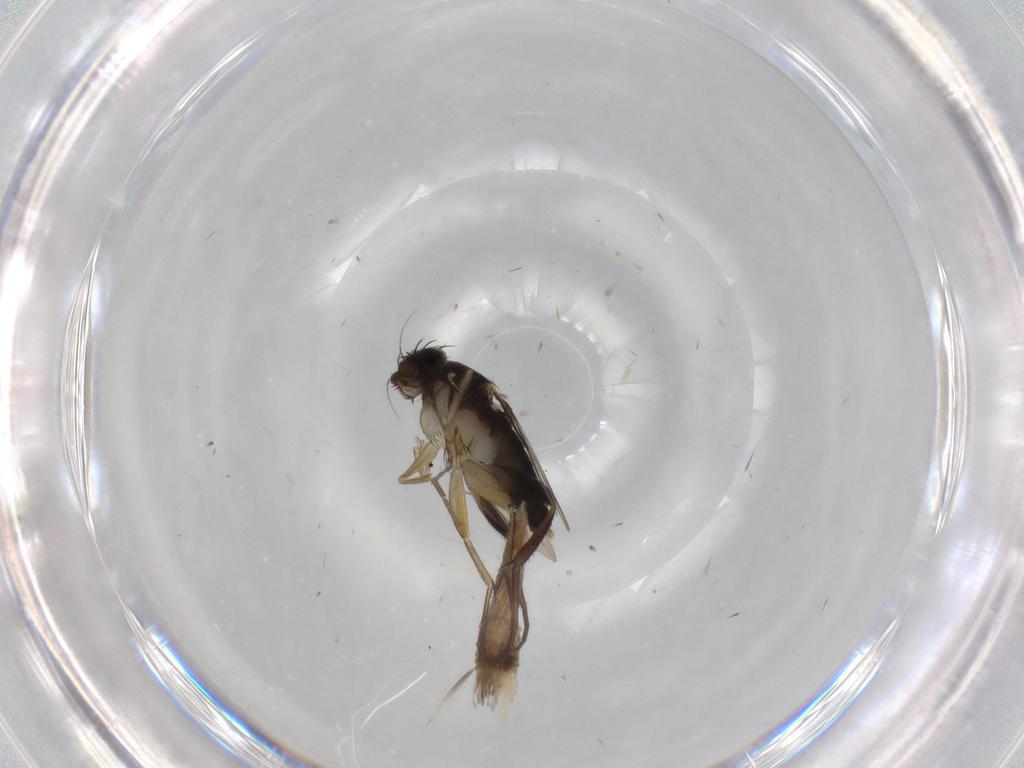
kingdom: Animalia
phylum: Arthropoda
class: Insecta
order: Diptera
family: Phoridae
